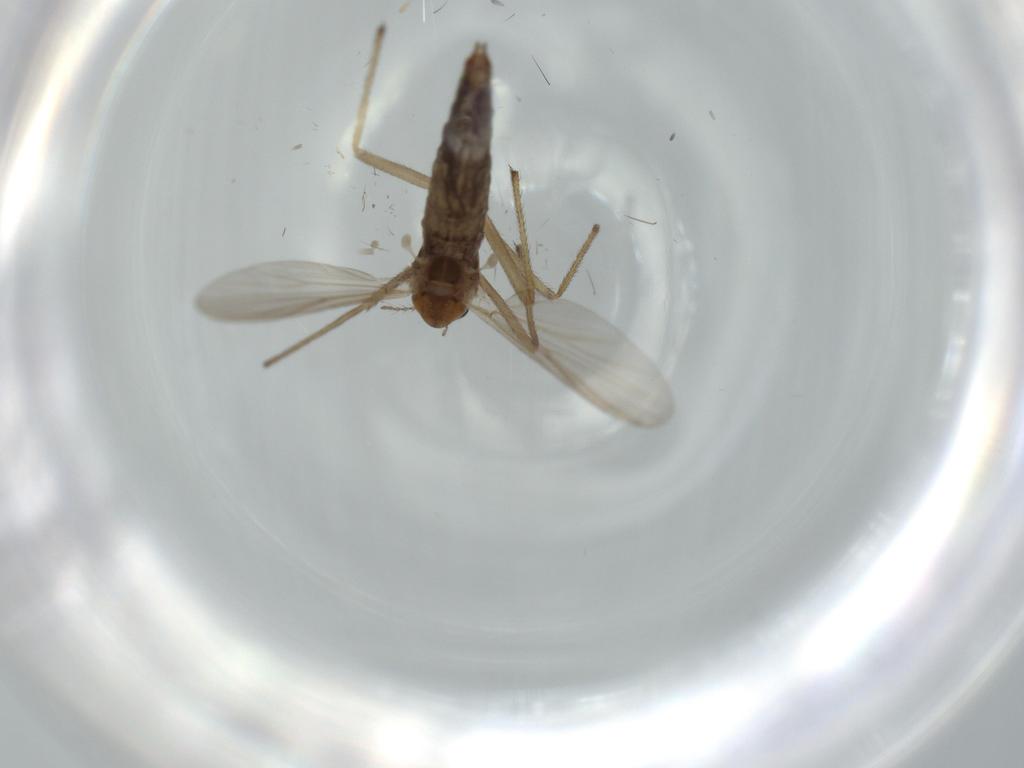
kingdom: Animalia
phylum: Arthropoda
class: Insecta
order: Diptera
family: Chironomidae
